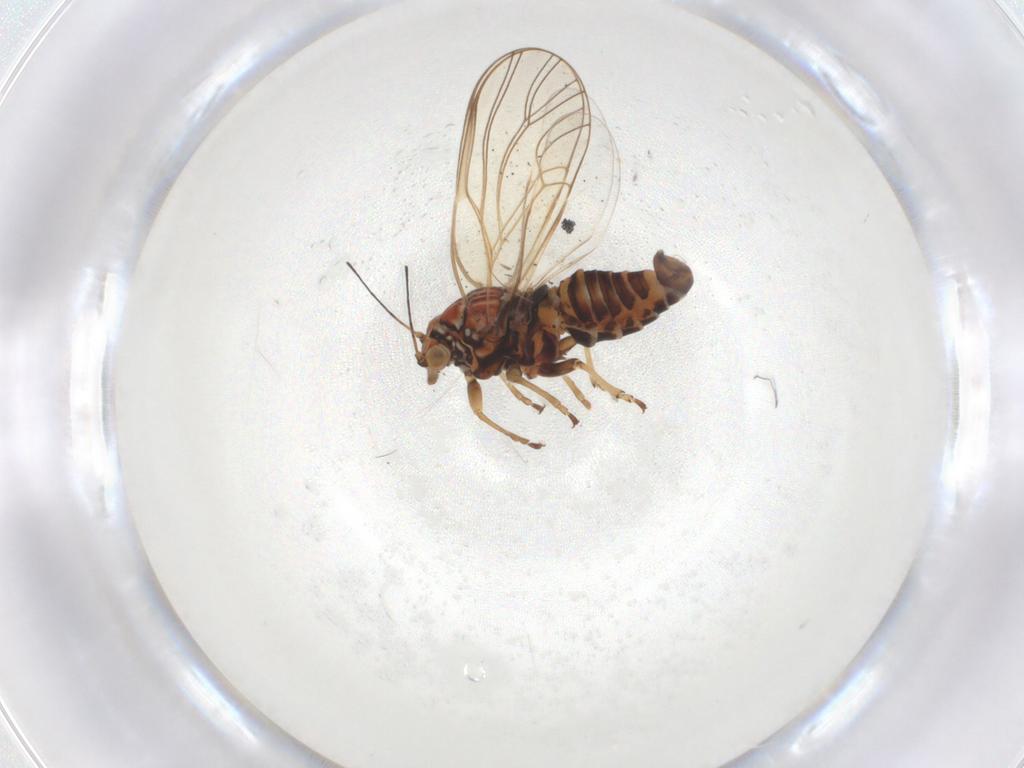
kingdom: Animalia
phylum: Arthropoda
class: Insecta
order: Hemiptera
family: Psyllidae
